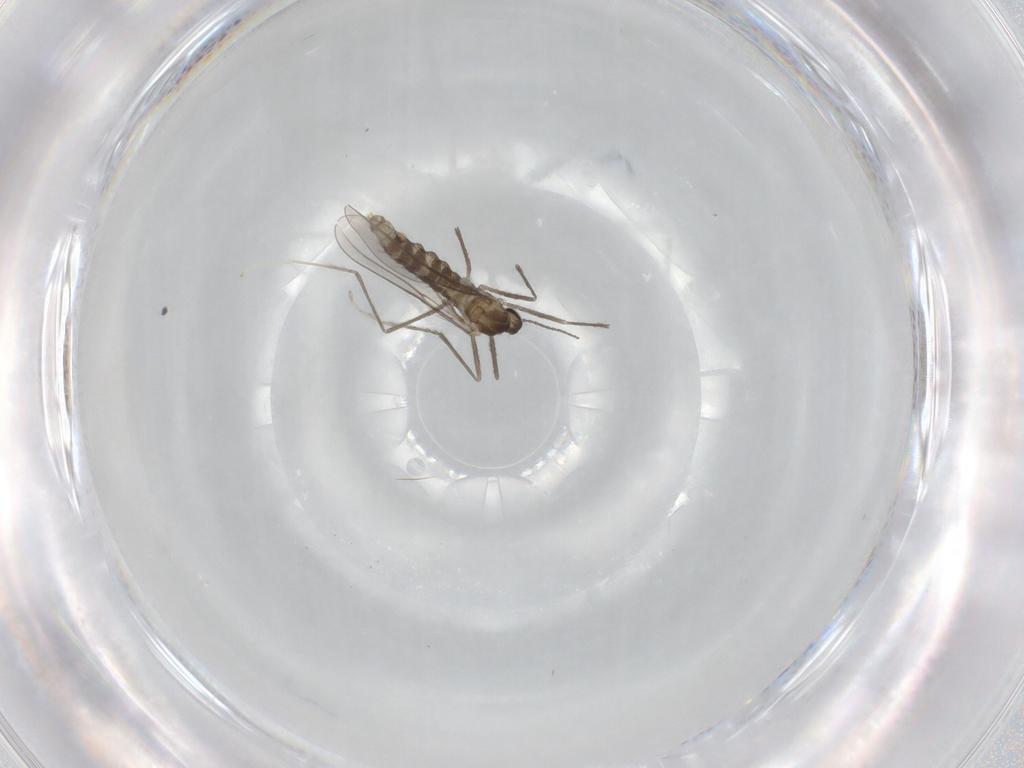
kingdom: Animalia
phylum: Arthropoda
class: Insecta
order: Diptera
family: Cecidomyiidae
